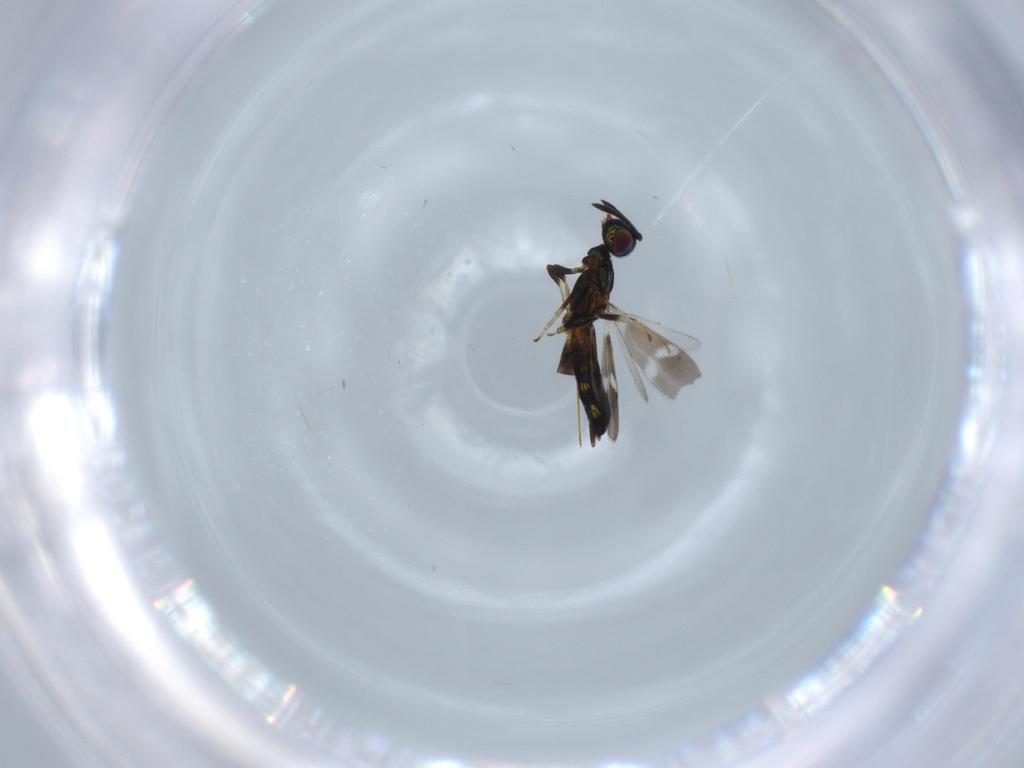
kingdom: Animalia
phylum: Arthropoda
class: Insecta
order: Hymenoptera
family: Eupelmidae
